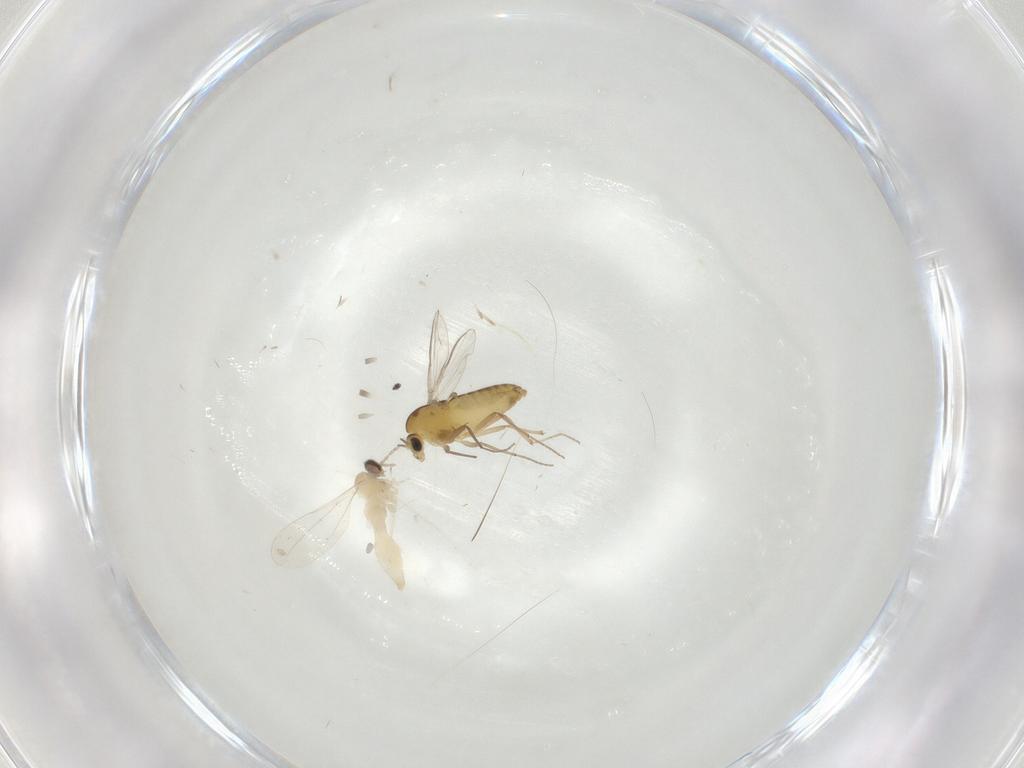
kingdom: Animalia
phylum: Arthropoda
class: Insecta
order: Diptera
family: Chironomidae
